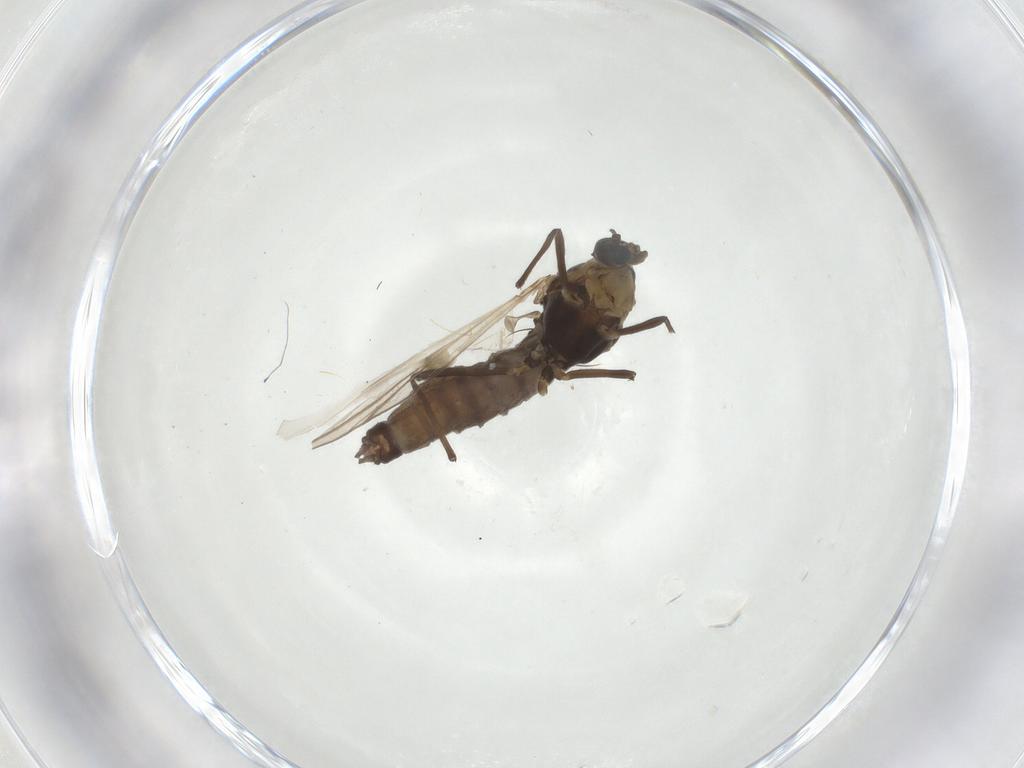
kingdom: Animalia
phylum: Arthropoda
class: Insecta
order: Diptera
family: Chironomidae
